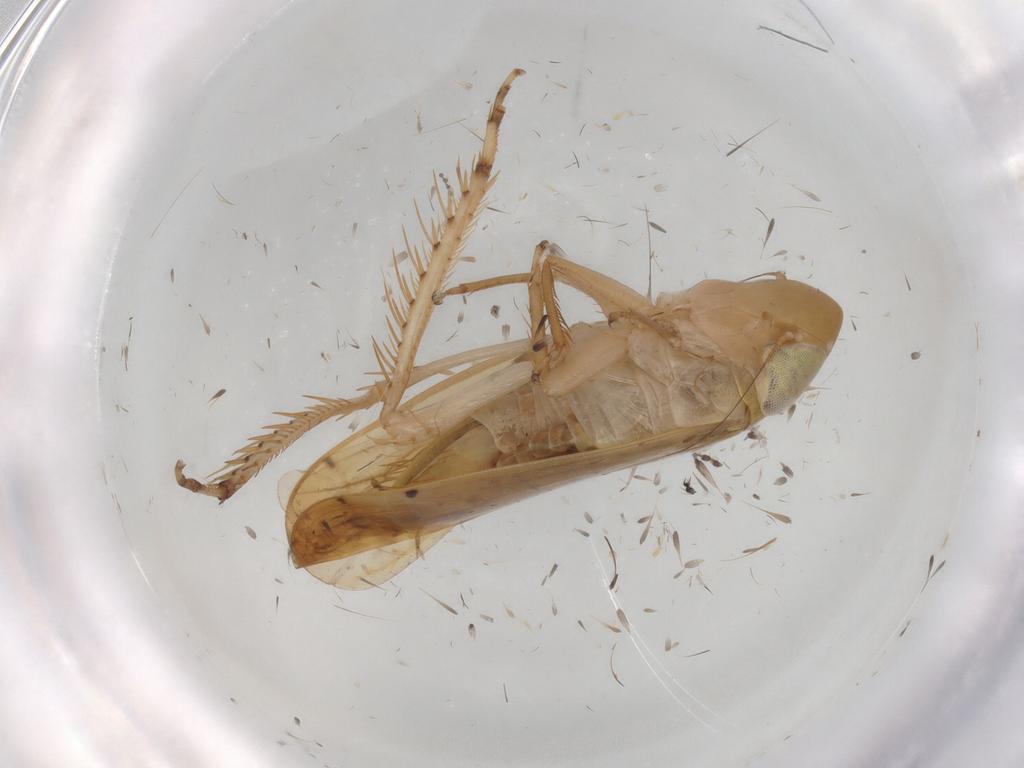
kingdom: Animalia
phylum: Arthropoda
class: Insecta
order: Hemiptera
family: Cicadellidae
